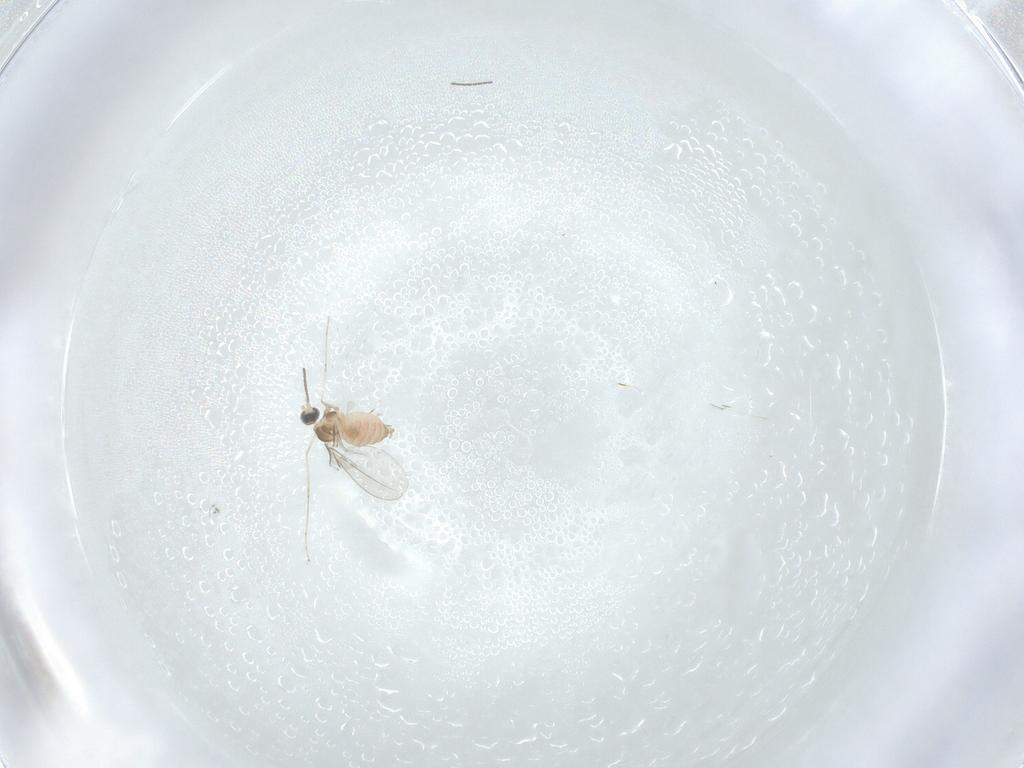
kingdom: Animalia
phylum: Arthropoda
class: Insecta
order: Diptera
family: Cecidomyiidae
